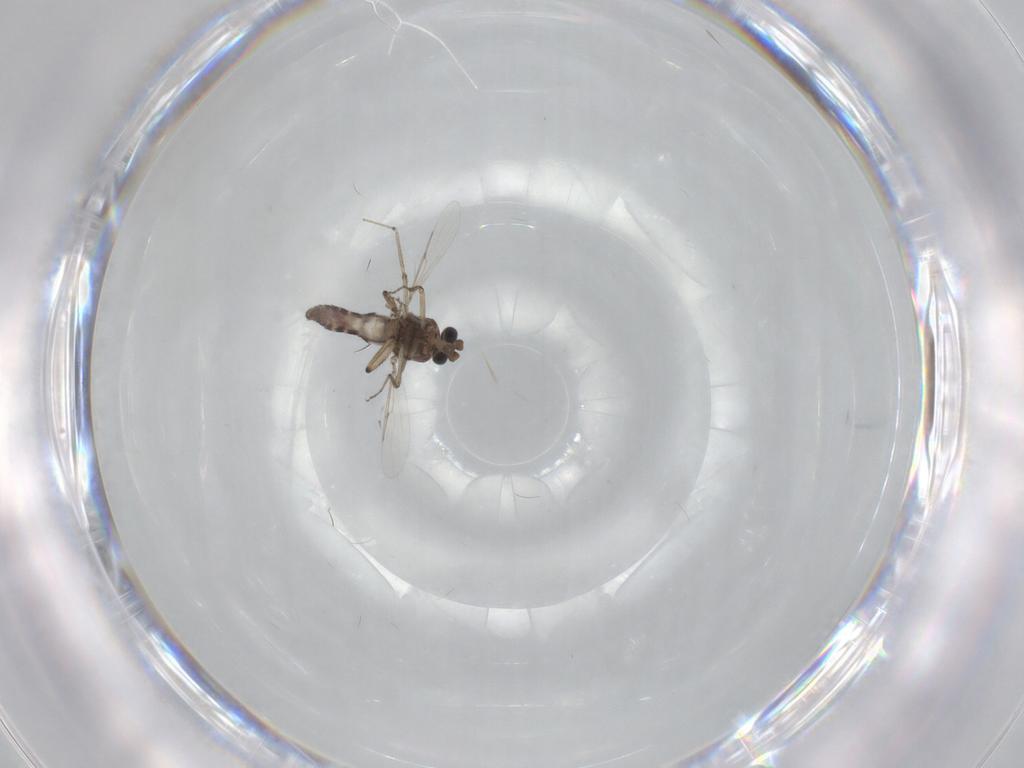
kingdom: Animalia
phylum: Arthropoda
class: Insecta
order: Diptera
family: Ceratopogonidae
